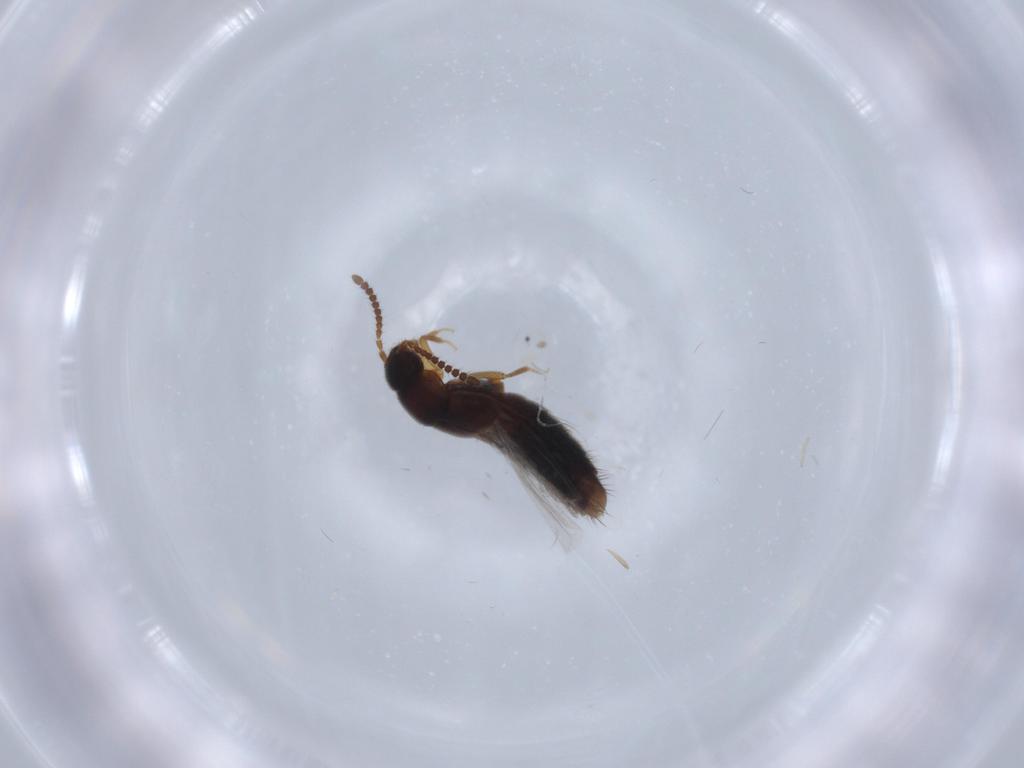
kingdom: Animalia
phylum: Arthropoda
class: Insecta
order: Coleoptera
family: Staphylinidae
